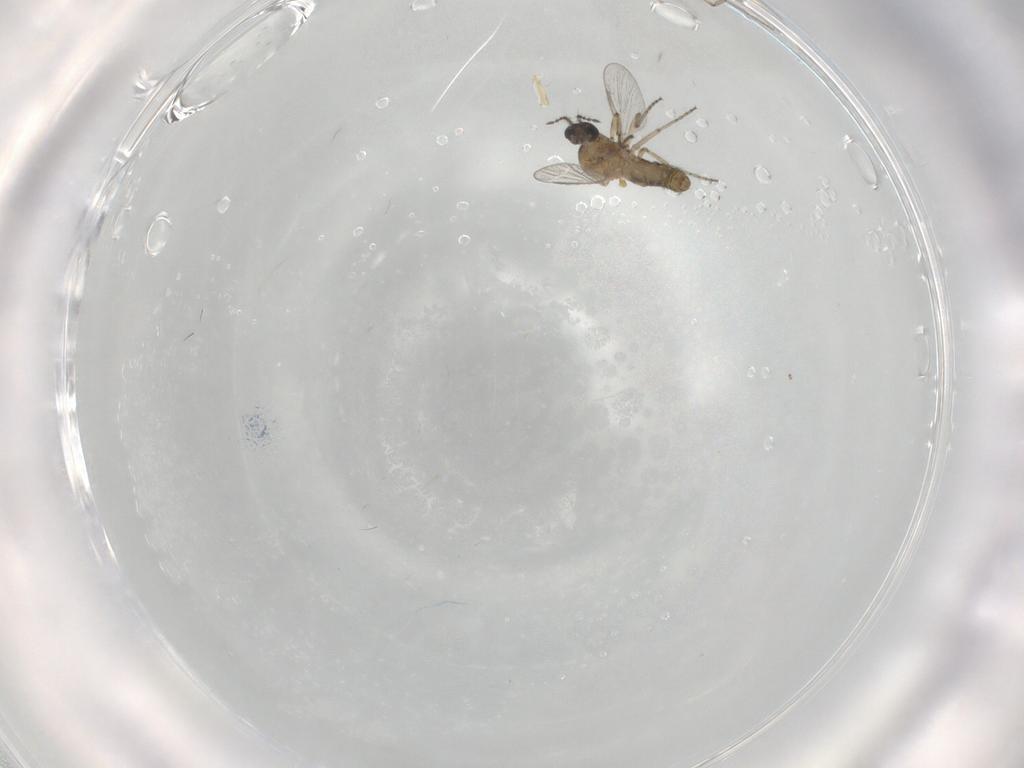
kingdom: Animalia
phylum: Arthropoda
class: Insecta
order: Diptera
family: Ceratopogonidae
